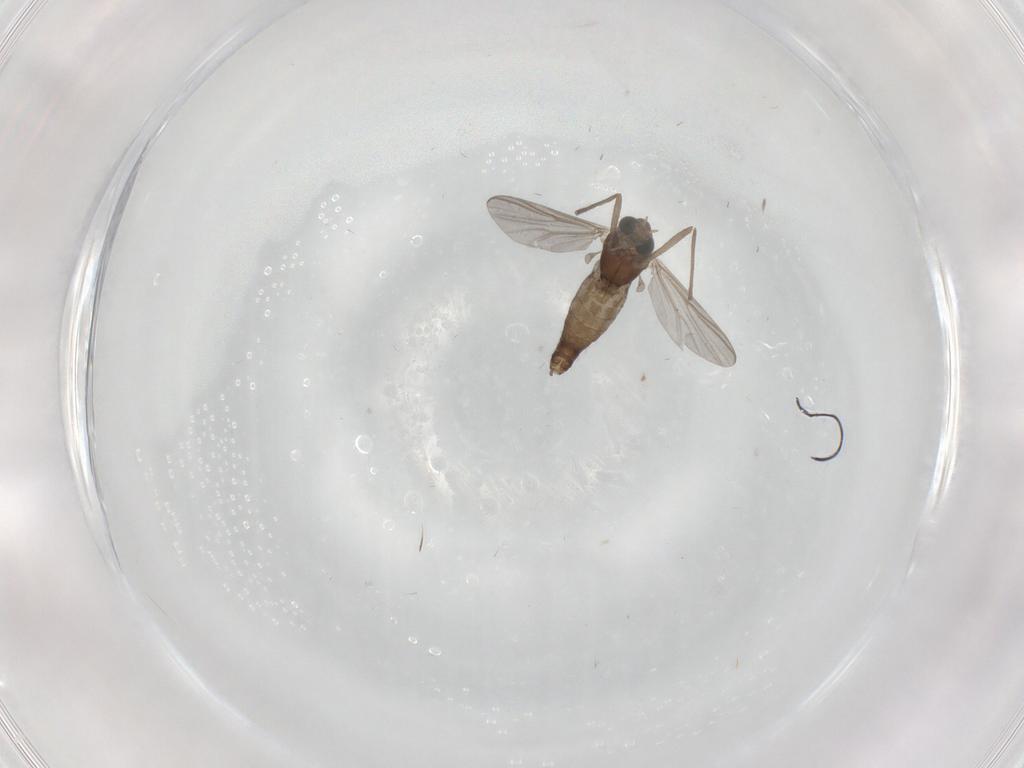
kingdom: Animalia
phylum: Arthropoda
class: Insecta
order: Diptera
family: Chironomidae
